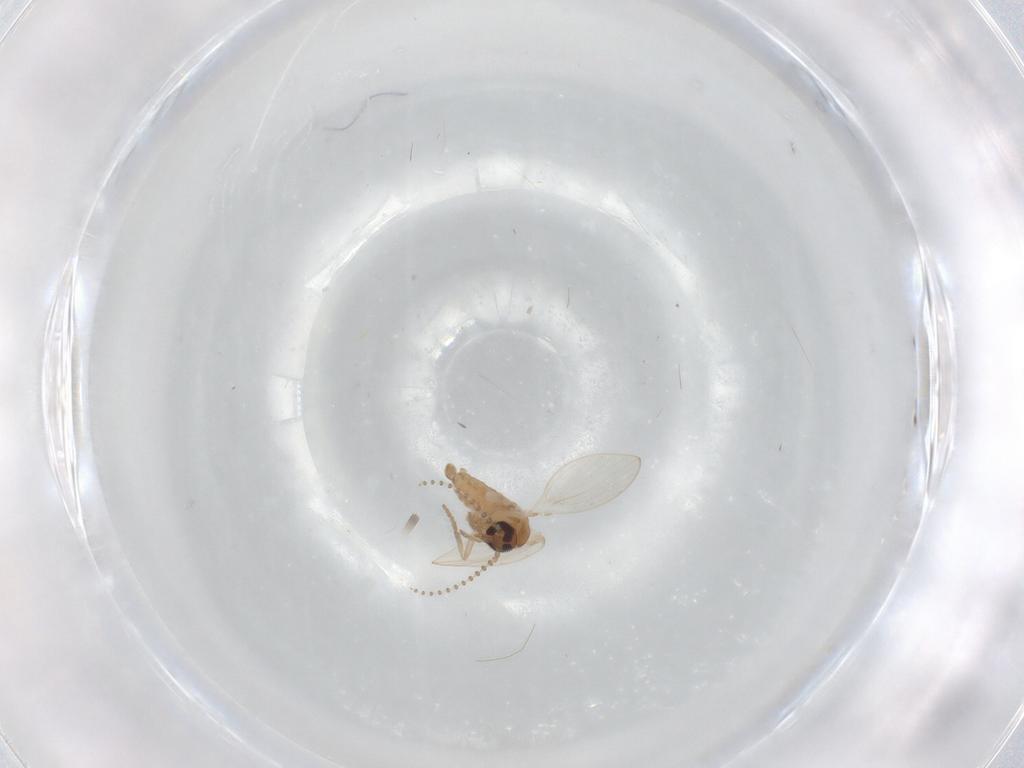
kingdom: Animalia
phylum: Arthropoda
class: Insecta
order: Diptera
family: Psychodidae
